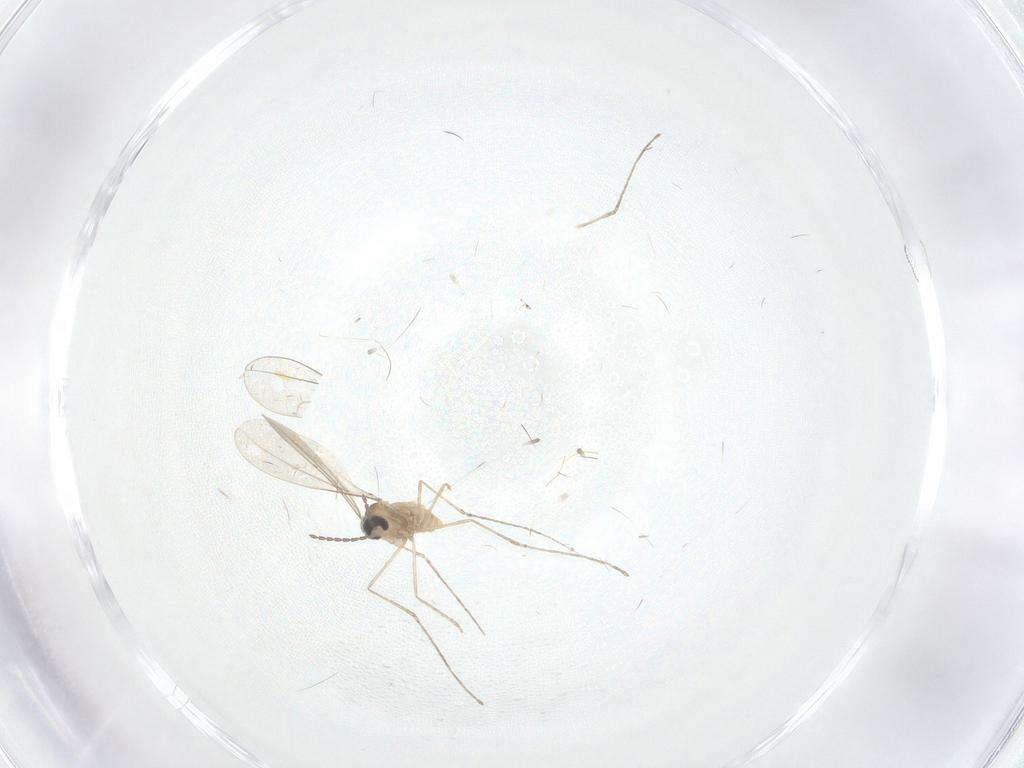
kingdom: Animalia
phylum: Arthropoda
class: Insecta
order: Diptera
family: Cecidomyiidae
